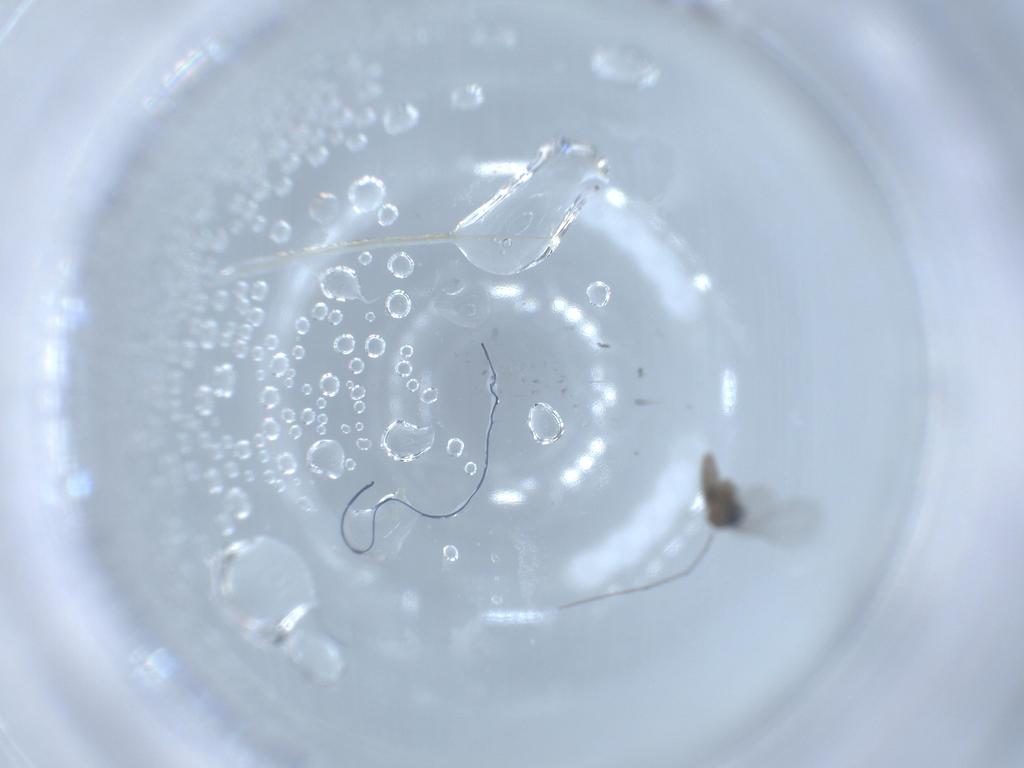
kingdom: Animalia
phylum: Arthropoda
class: Insecta
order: Diptera
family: Cecidomyiidae
